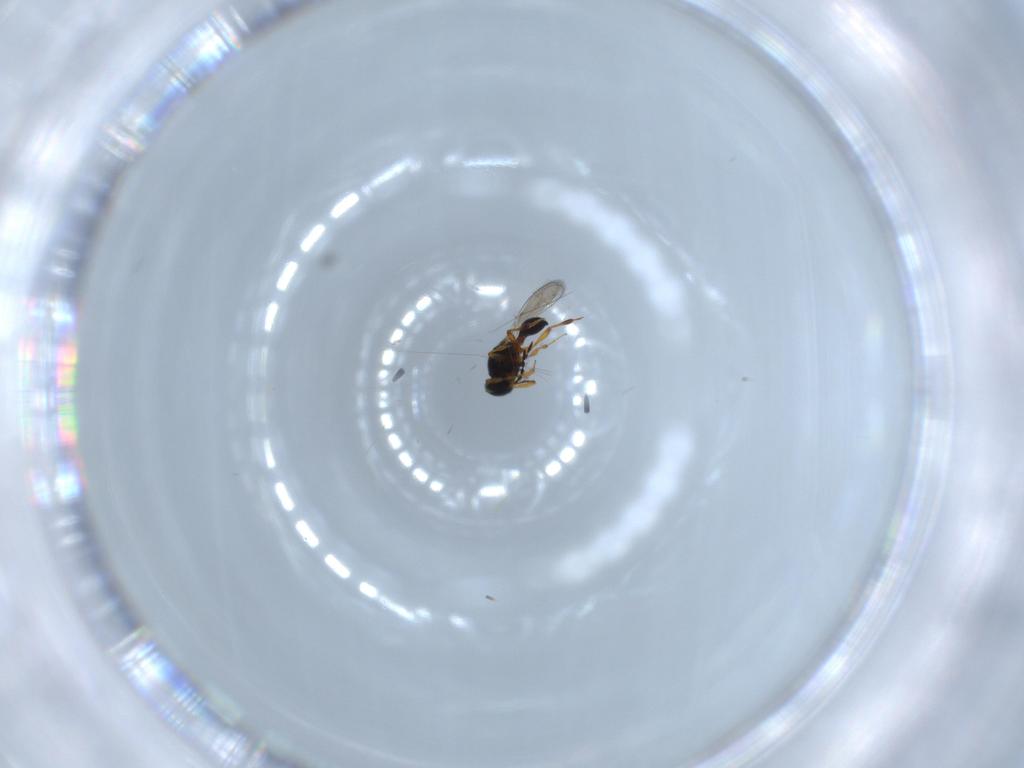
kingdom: Animalia
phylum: Arthropoda
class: Insecta
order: Hymenoptera
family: Platygastridae
